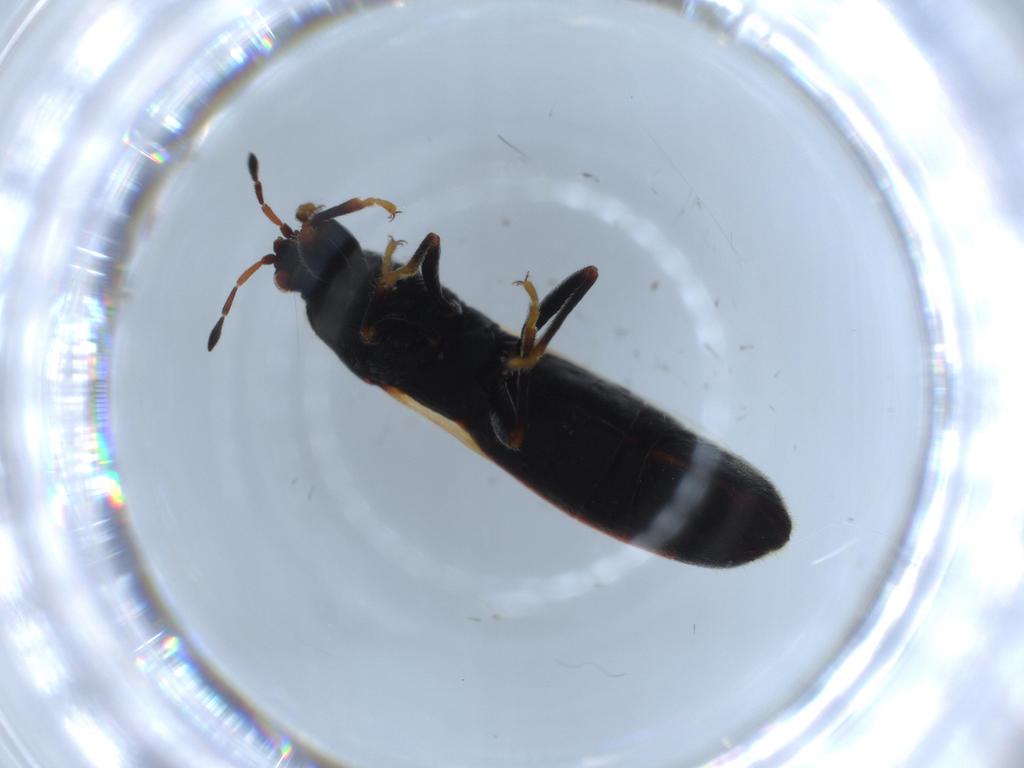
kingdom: Animalia
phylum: Arthropoda
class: Insecta
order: Hemiptera
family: Blissidae
